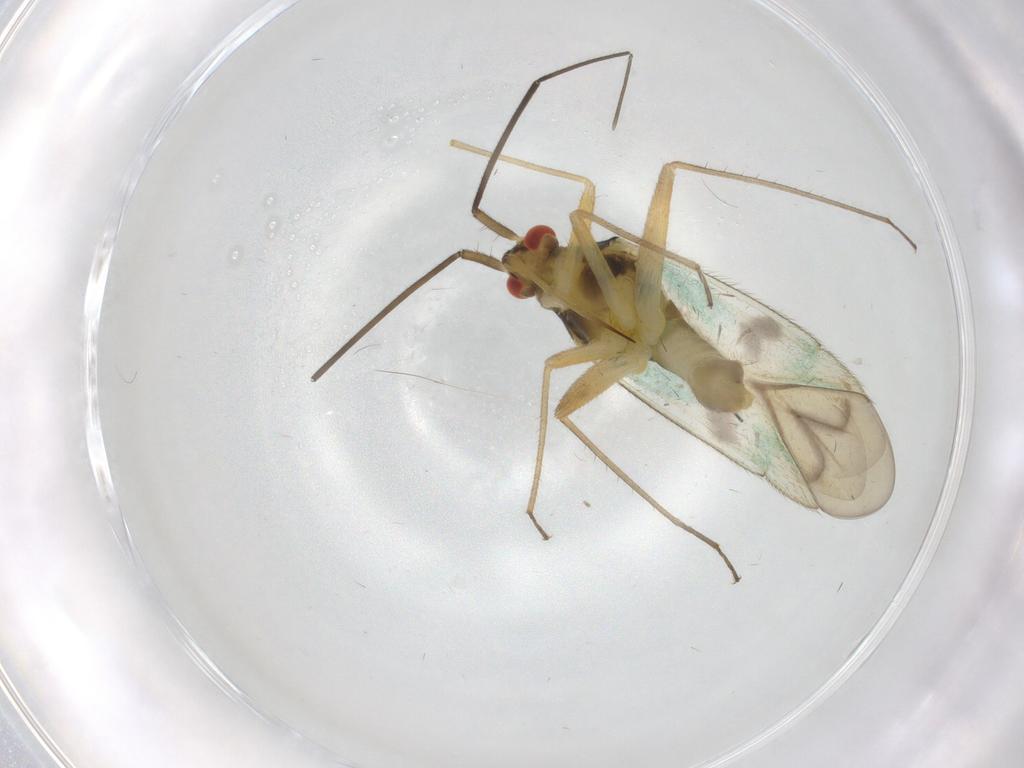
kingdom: Animalia
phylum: Arthropoda
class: Insecta
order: Hemiptera
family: Miridae
